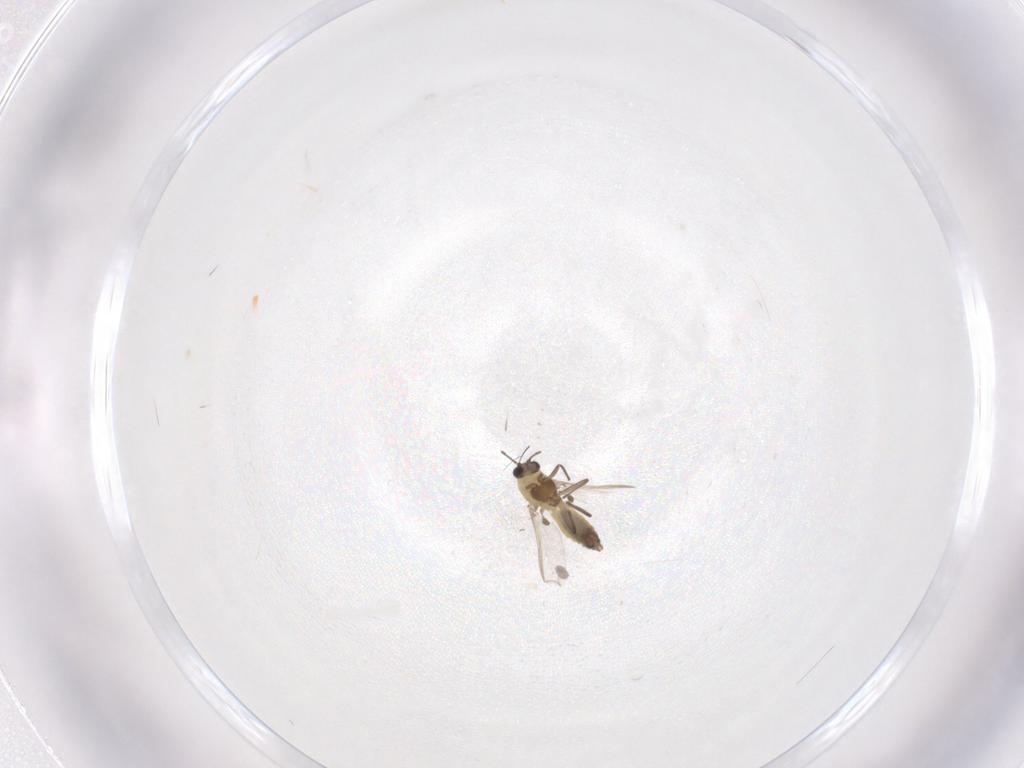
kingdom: Animalia
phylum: Arthropoda
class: Insecta
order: Diptera
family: Chironomidae
